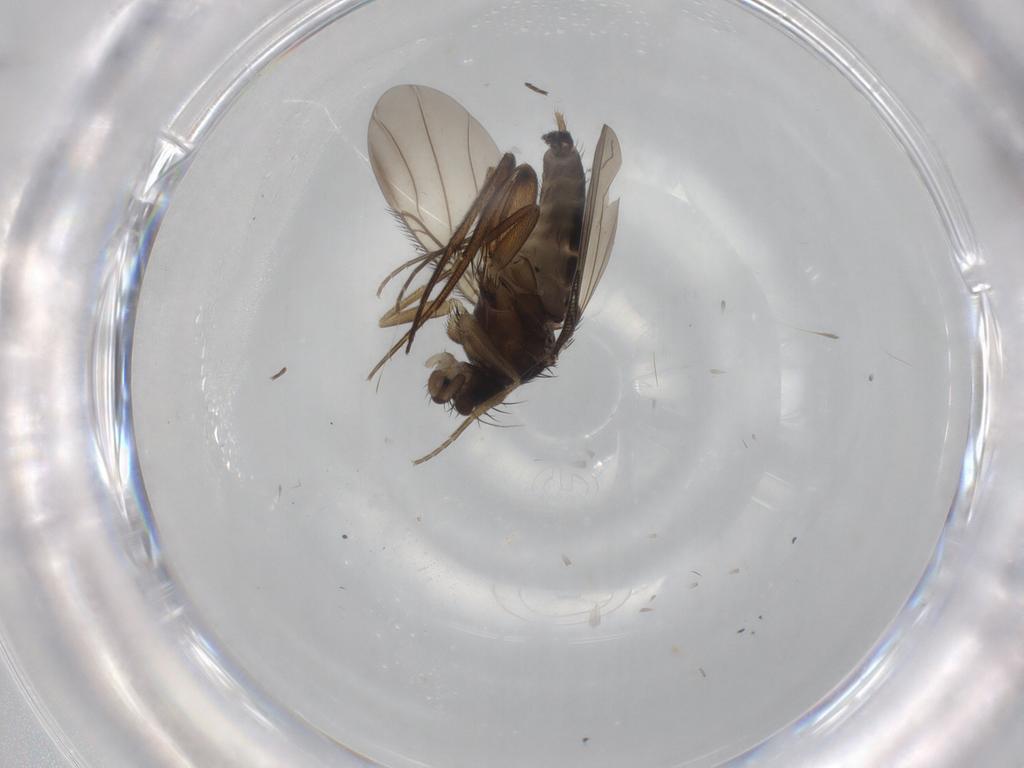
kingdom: Animalia
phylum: Arthropoda
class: Insecta
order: Diptera
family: Phoridae
